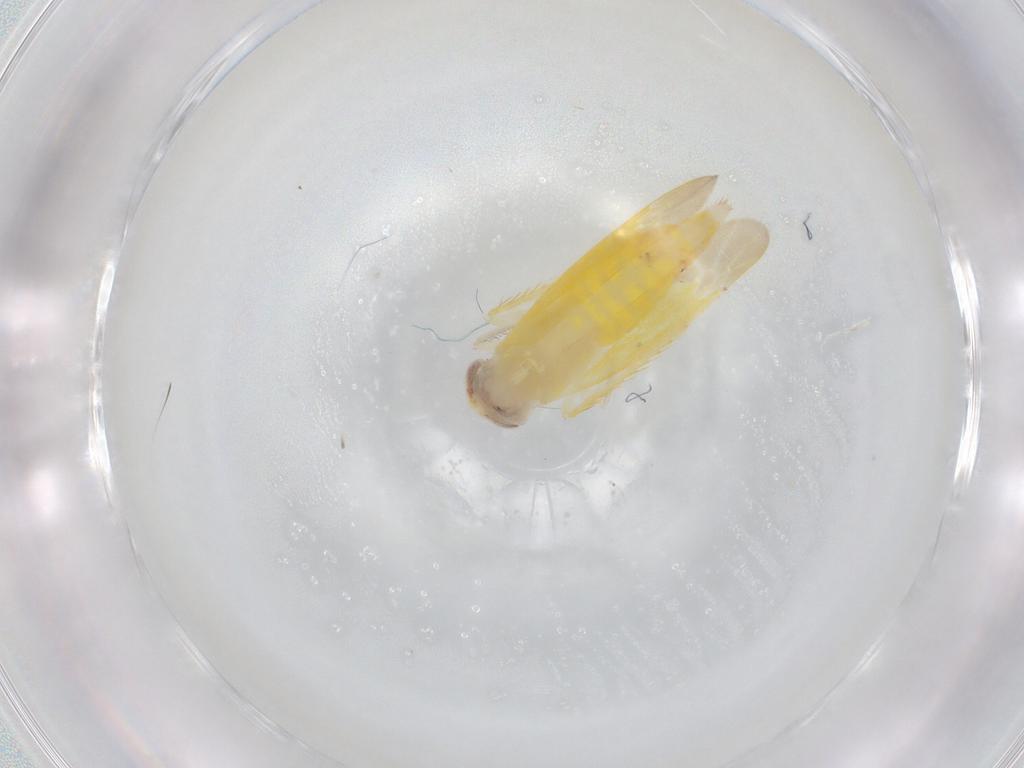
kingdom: Animalia
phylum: Arthropoda
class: Insecta
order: Hemiptera
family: Cicadellidae
